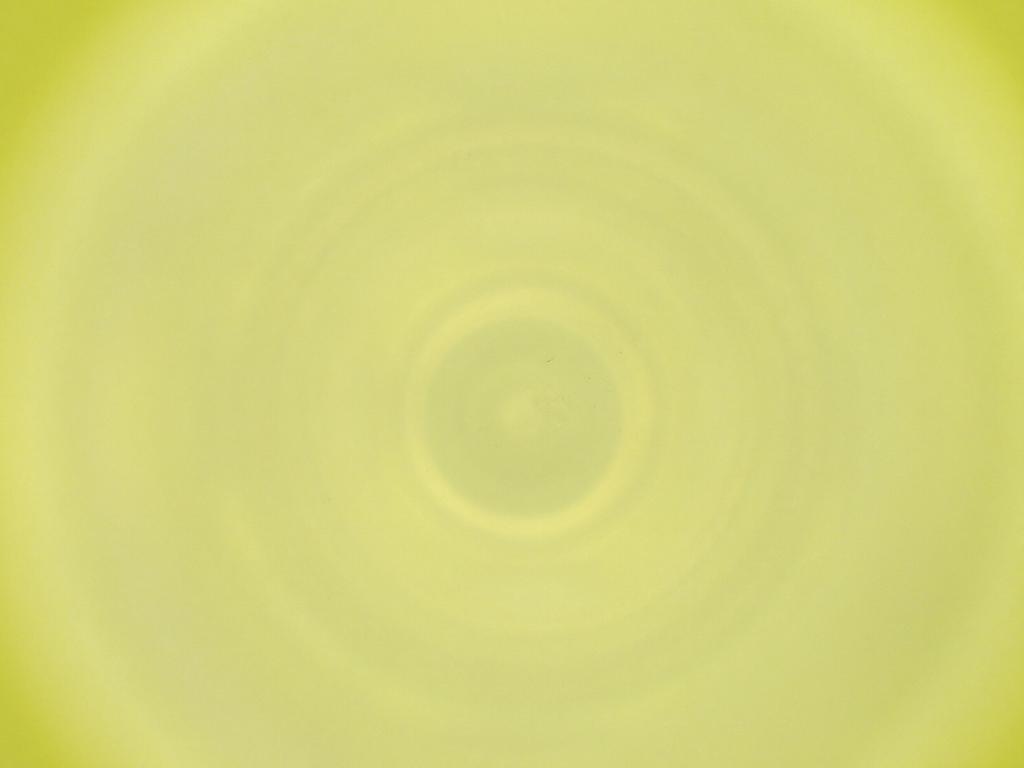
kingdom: Animalia
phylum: Arthropoda
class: Insecta
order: Diptera
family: Cecidomyiidae
